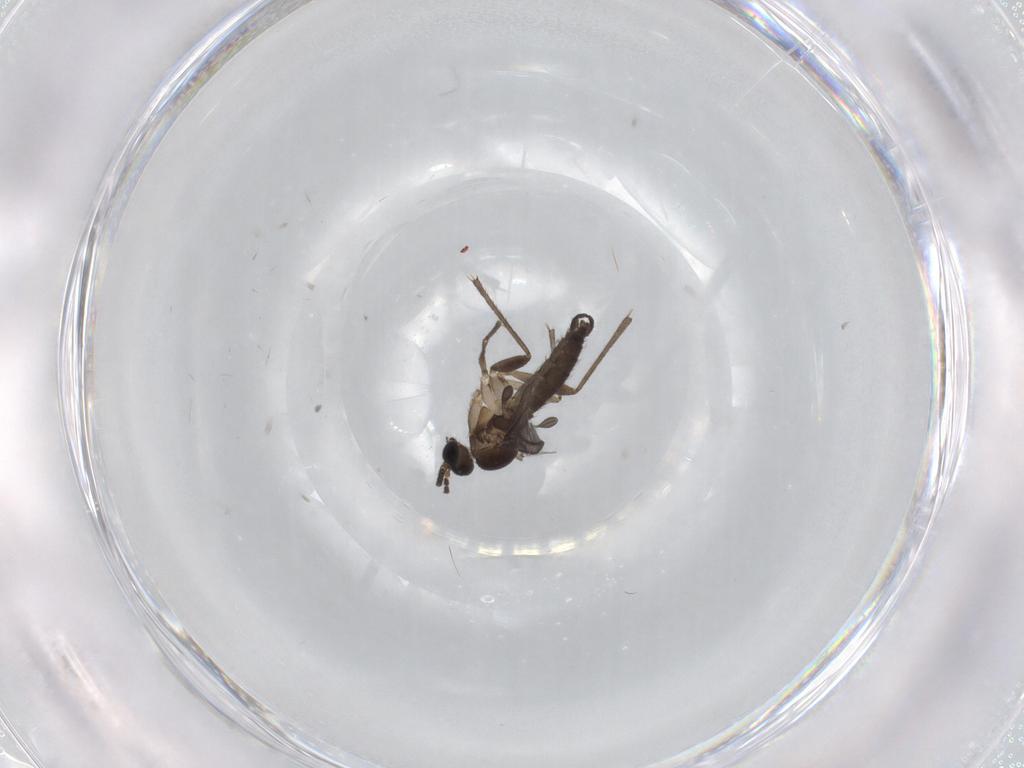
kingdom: Animalia
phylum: Arthropoda
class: Insecta
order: Diptera
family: Sciaridae
